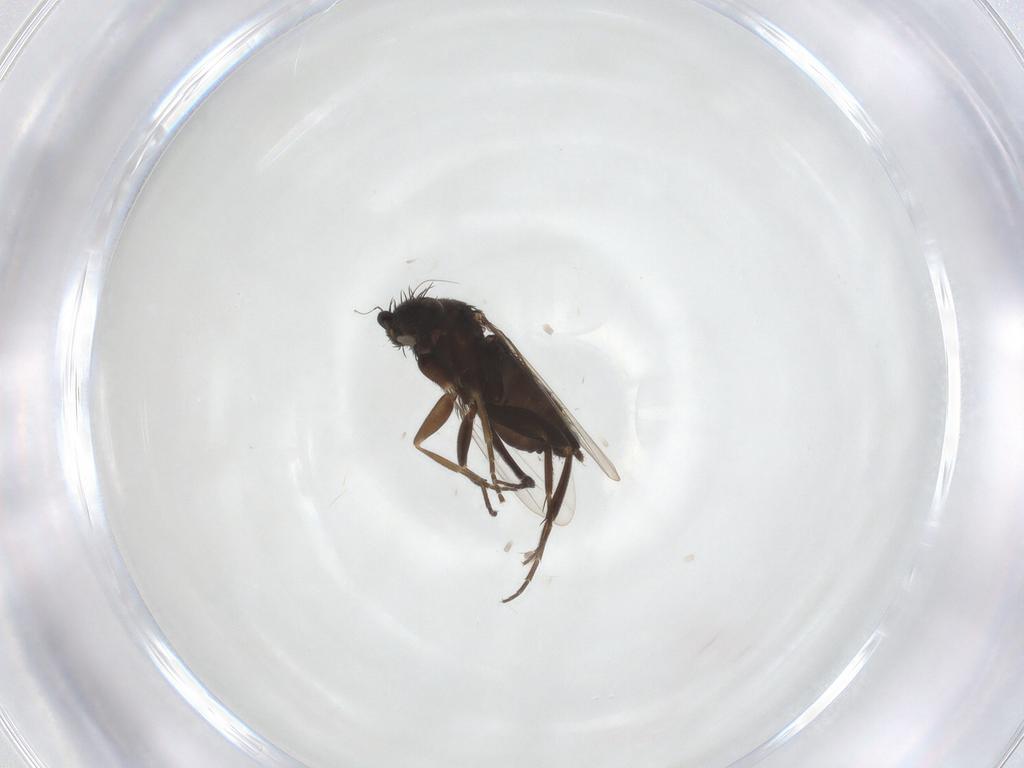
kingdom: Animalia
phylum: Arthropoda
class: Insecta
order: Diptera
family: Phoridae
